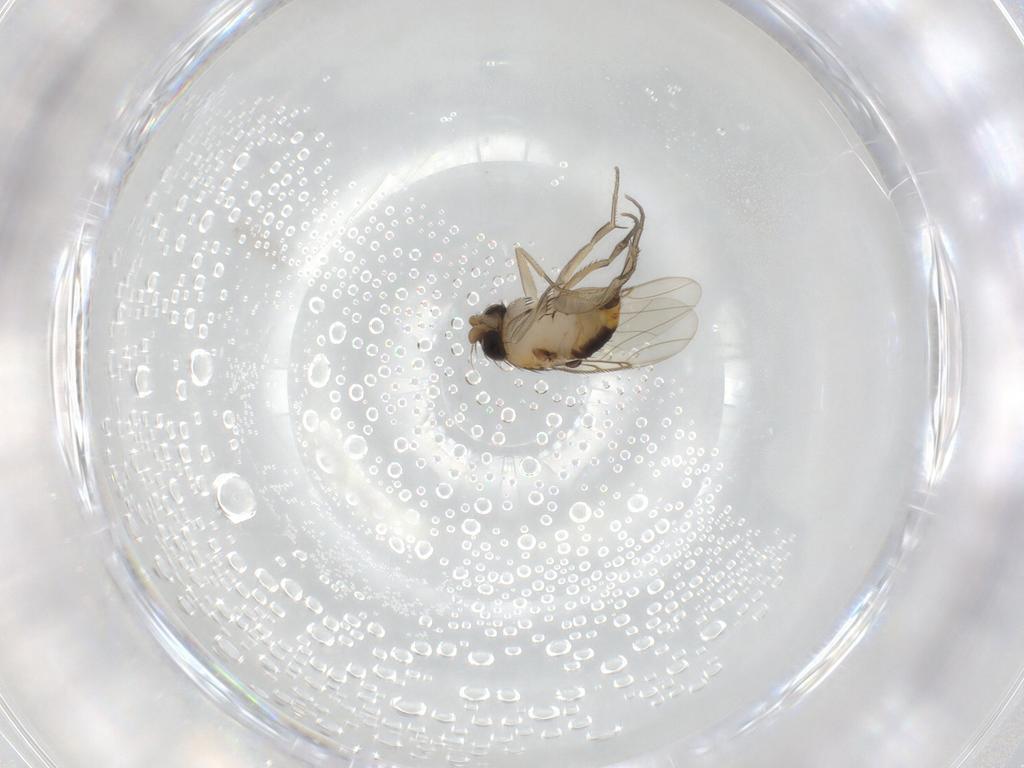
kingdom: Animalia
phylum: Arthropoda
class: Insecta
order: Diptera
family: Phoridae
